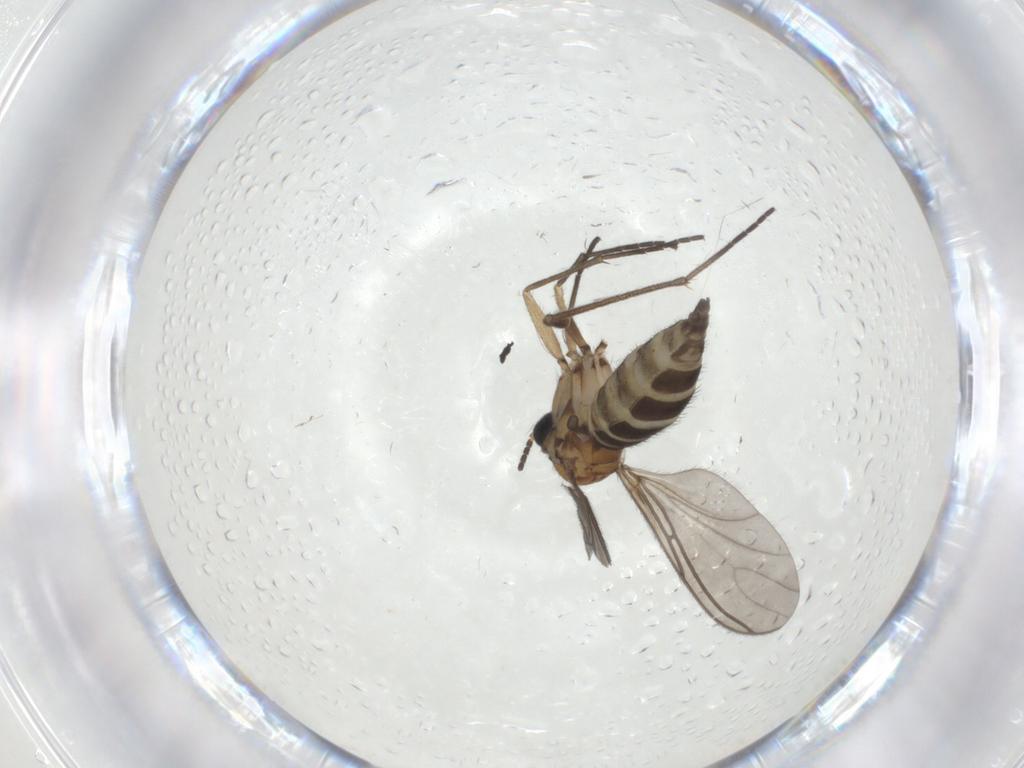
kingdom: Animalia
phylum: Arthropoda
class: Insecta
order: Diptera
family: Sciaridae
